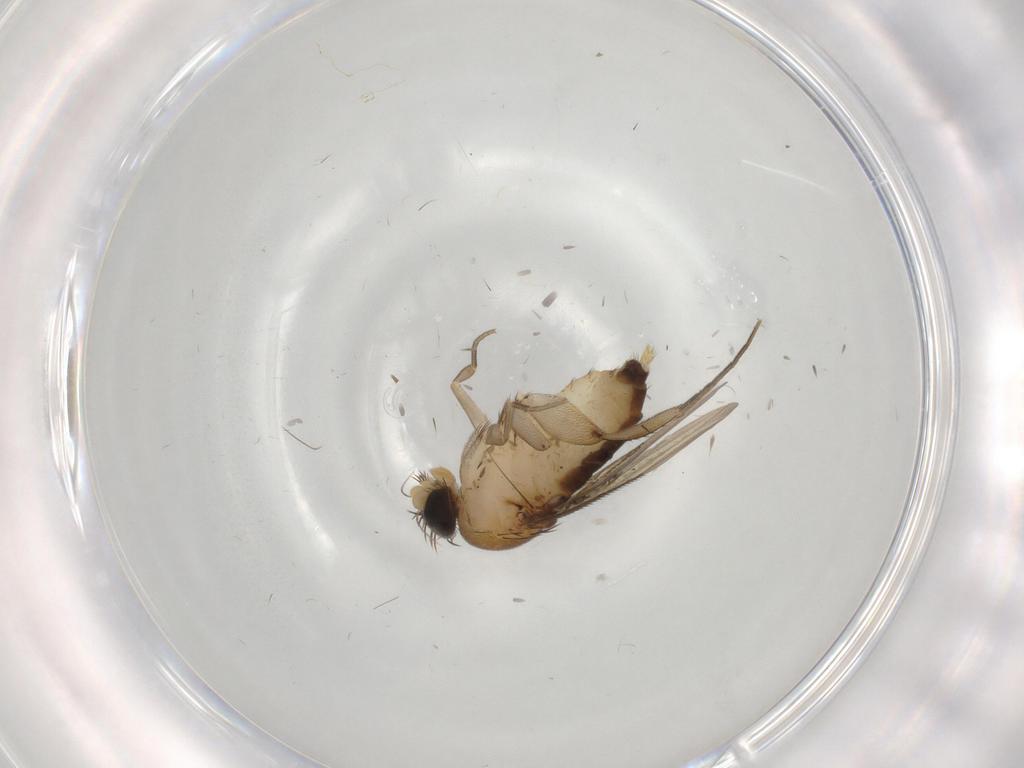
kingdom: Animalia
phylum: Arthropoda
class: Insecta
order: Diptera
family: Phoridae
